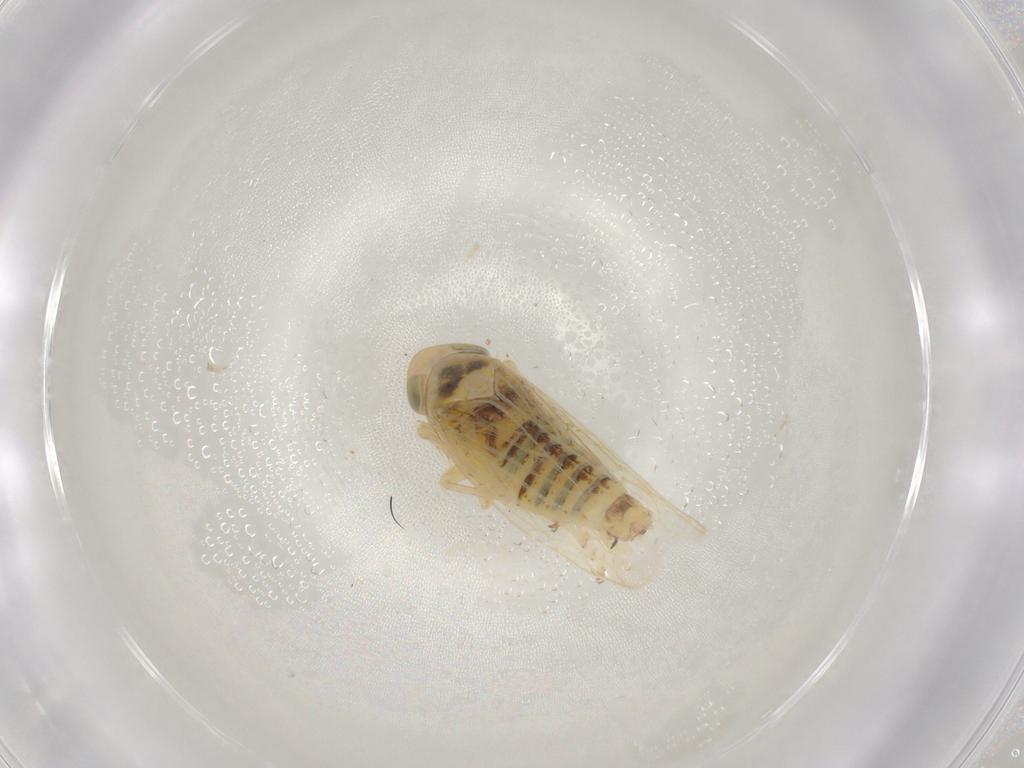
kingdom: Animalia
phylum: Arthropoda
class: Insecta
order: Hemiptera
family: Cicadellidae
